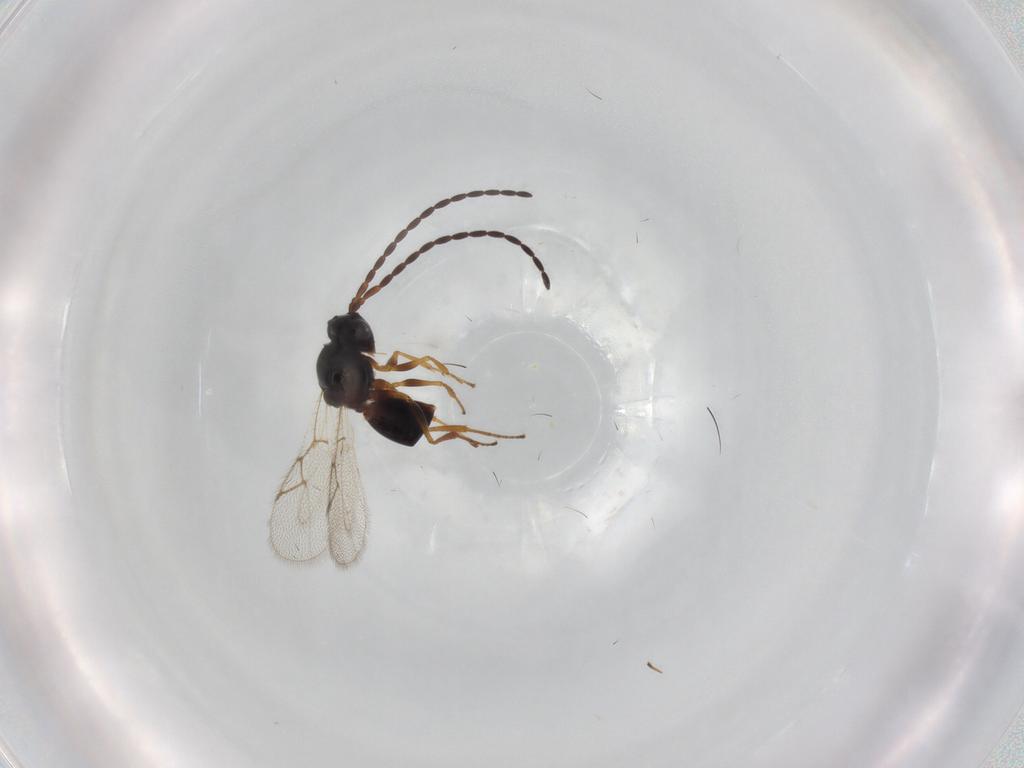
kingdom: Animalia
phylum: Arthropoda
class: Insecta
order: Hymenoptera
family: Figitidae
